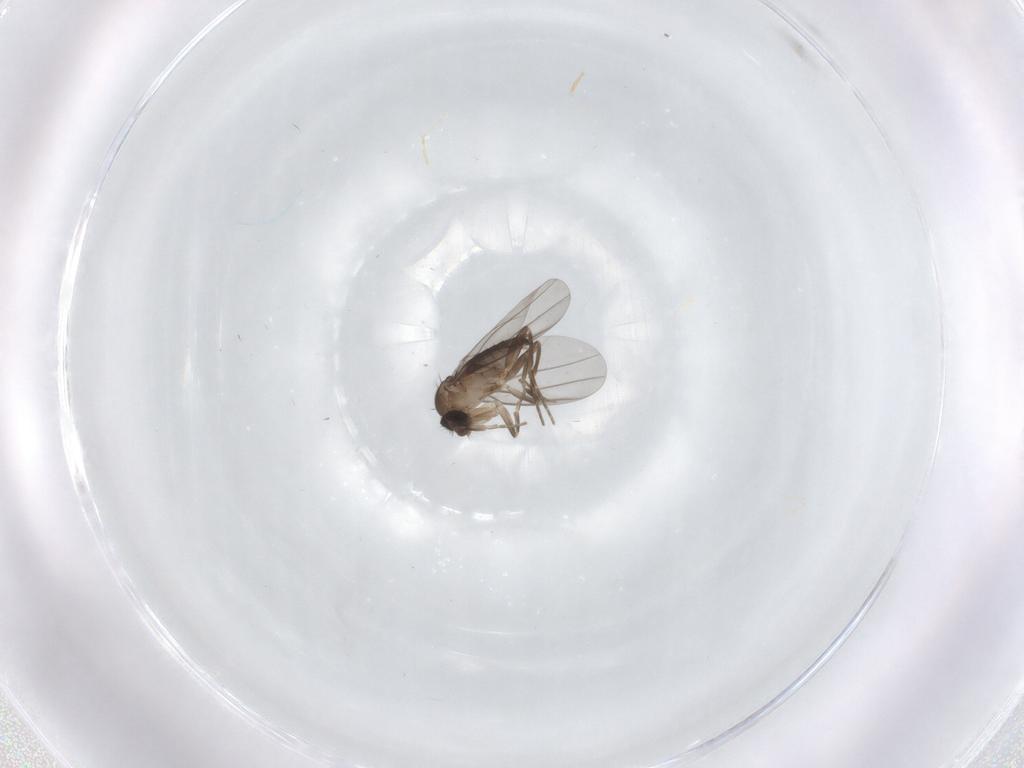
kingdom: Animalia
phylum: Arthropoda
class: Insecta
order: Diptera
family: Phoridae
